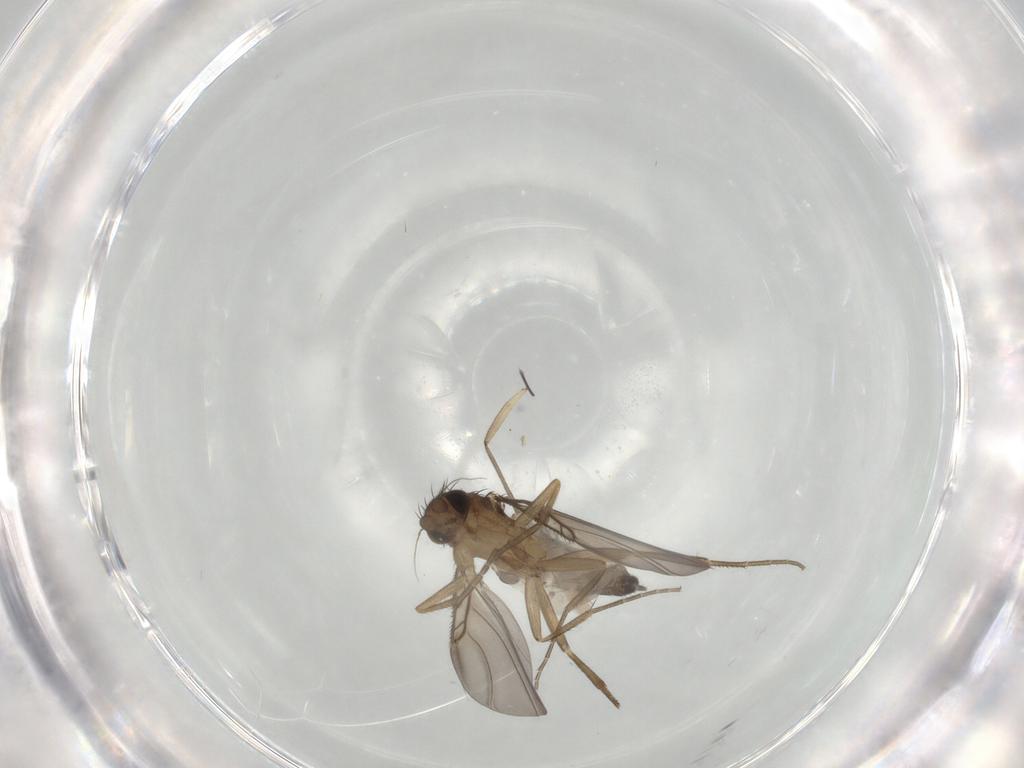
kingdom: Animalia
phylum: Arthropoda
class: Insecta
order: Diptera
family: Phoridae
